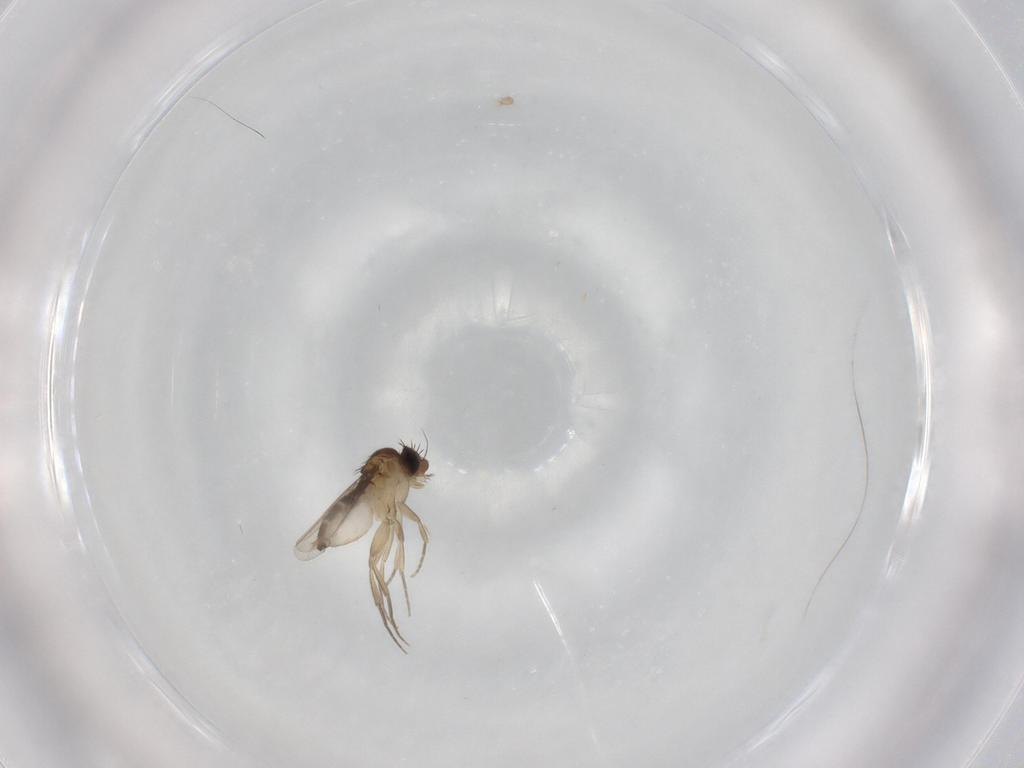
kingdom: Animalia
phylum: Arthropoda
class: Insecta
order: Diptera
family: Phoridae
